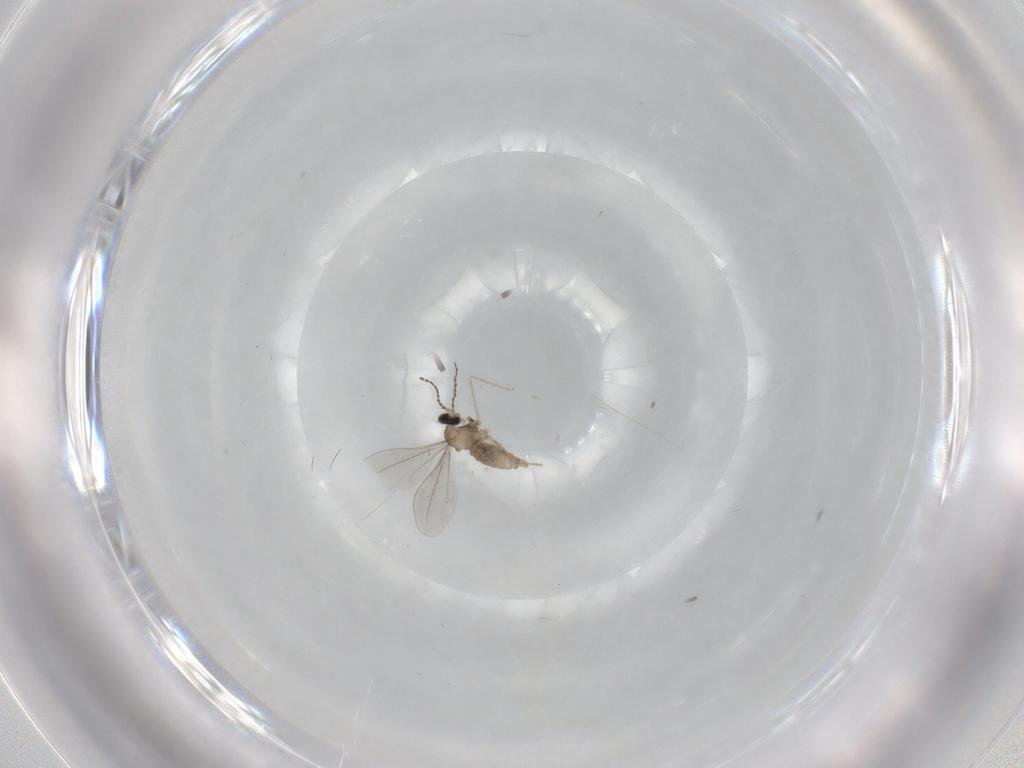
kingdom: Animalia
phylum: Arthropoda
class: Insecta
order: Diptera
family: Cecidomyiidae
